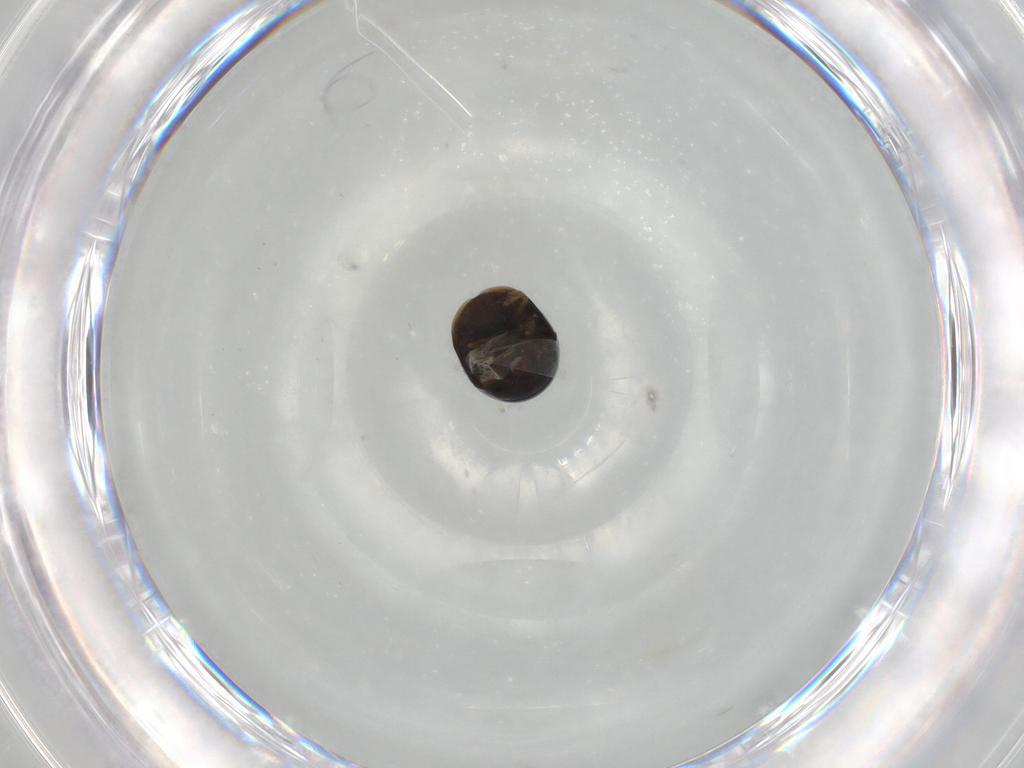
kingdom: Animalia
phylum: Arthropoda
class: Insecta
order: Coleoptera
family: Cybocephalidae
